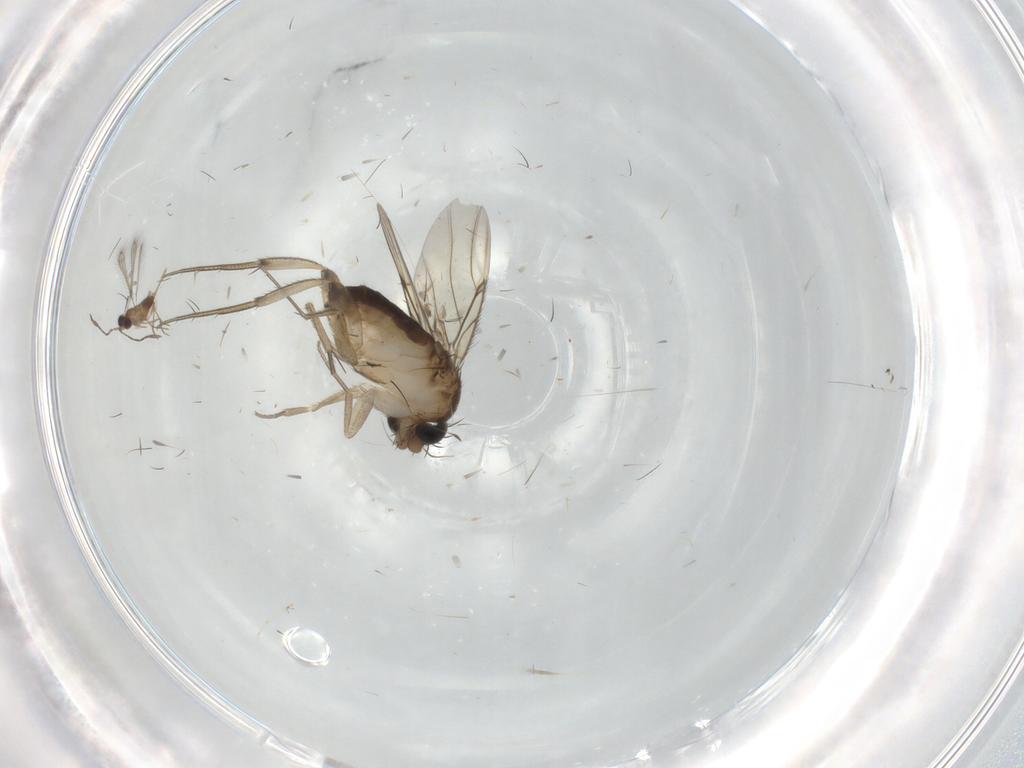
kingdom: Animalia
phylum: Arthropoda
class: Insecta
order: Diptera
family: Phoridae
